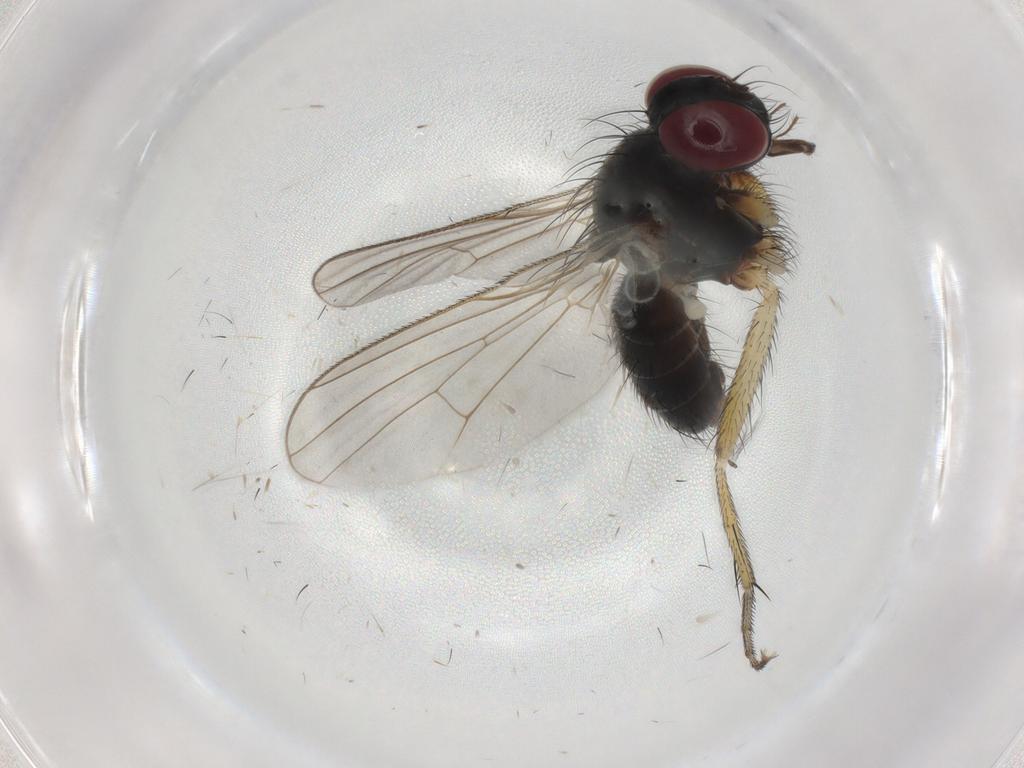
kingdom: Animalia
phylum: Arthropoda
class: Insecta
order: Diptera
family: Muscidae
